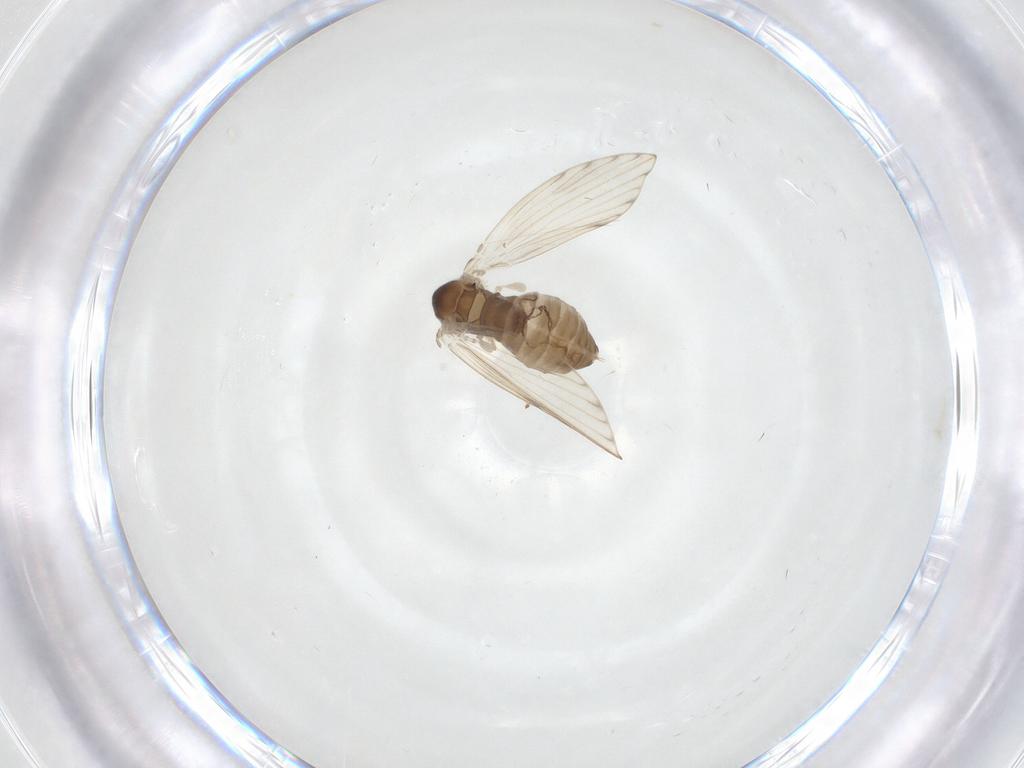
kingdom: Animalia
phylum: Arthropoda
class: Insecta
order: Diptera
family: Psychodidae
